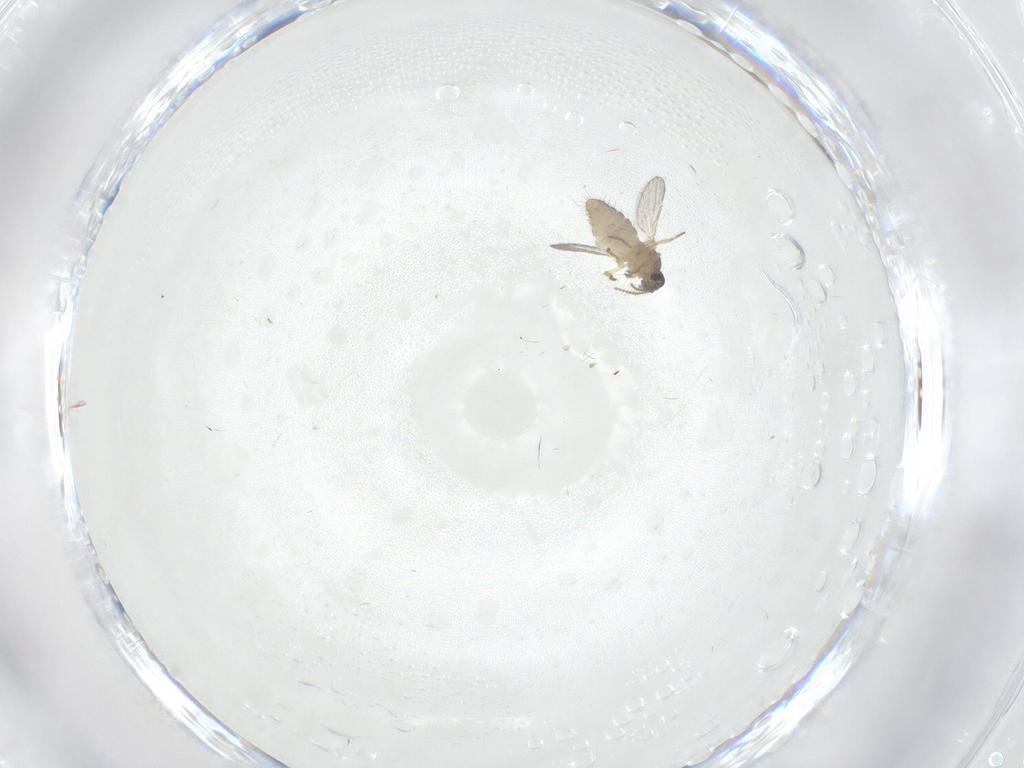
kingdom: Animalia
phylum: Arthropoda
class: Insecta
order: Diptera
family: Ceratopogonidae
